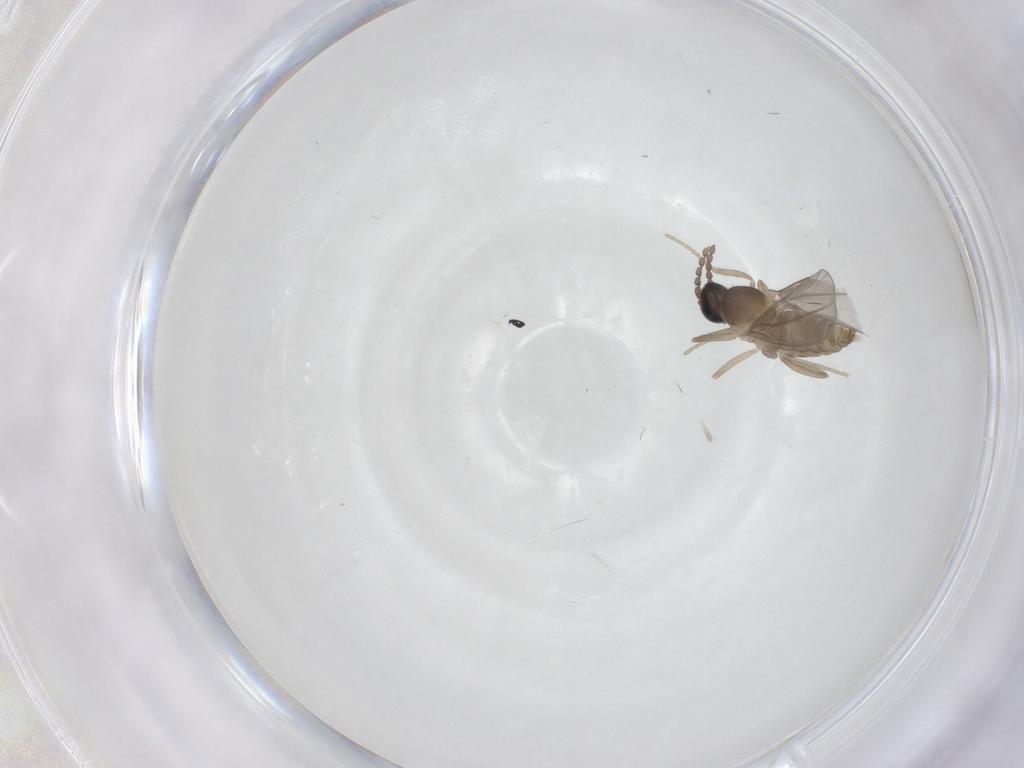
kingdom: Animalia
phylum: Arthropoda
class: Insecta
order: Diptera
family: Cecidomyiidae
